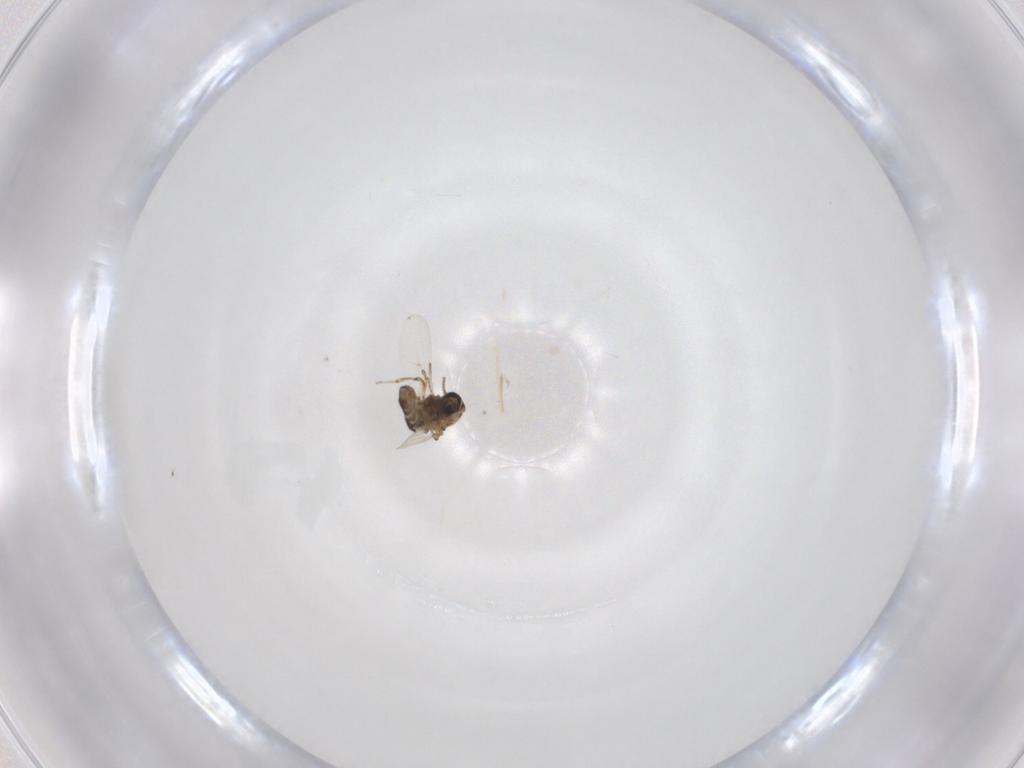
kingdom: Animalia
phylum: Arthropoda
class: Insecta
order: Diptera
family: Ceratopogonidae
